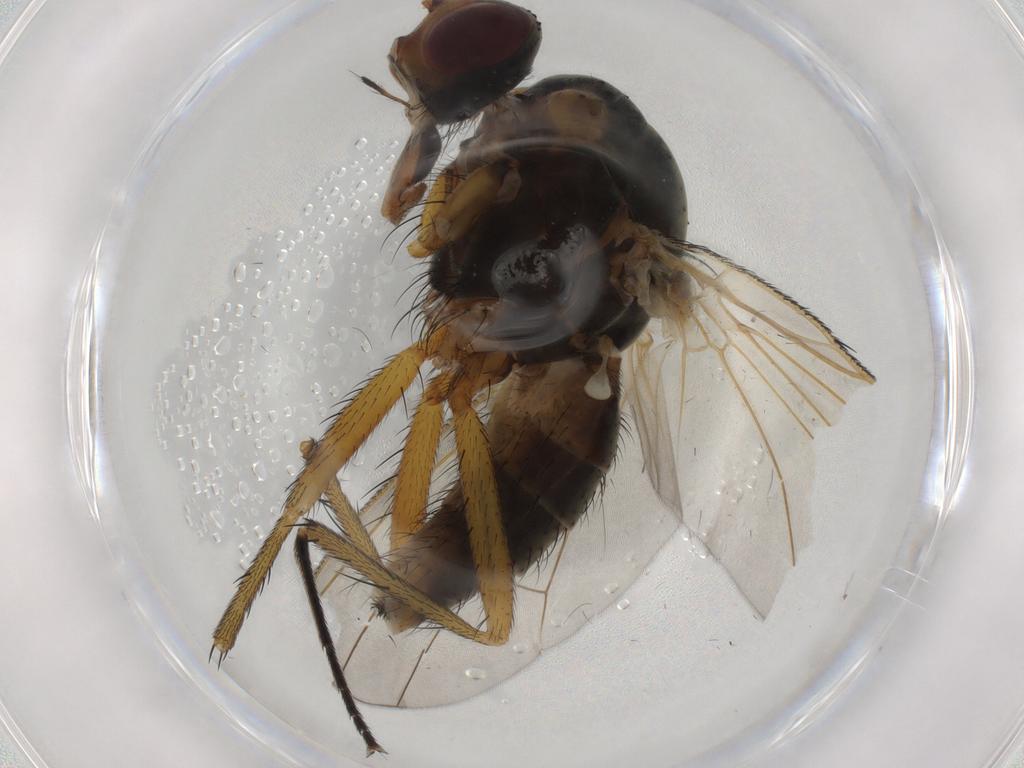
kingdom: Animalia
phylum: Arthropoda
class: Insecta
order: Diptera
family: Anthomyiidae
